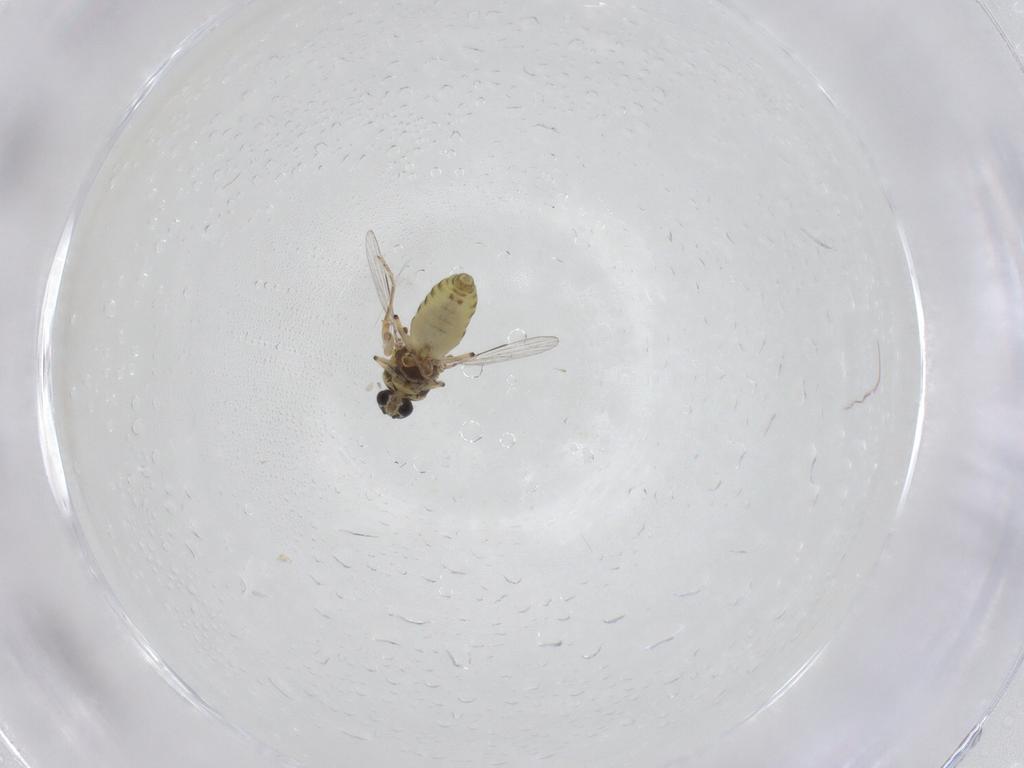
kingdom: Animalia
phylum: Arthropoda
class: Insecta
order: Diptera
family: Ceratopogonidae
